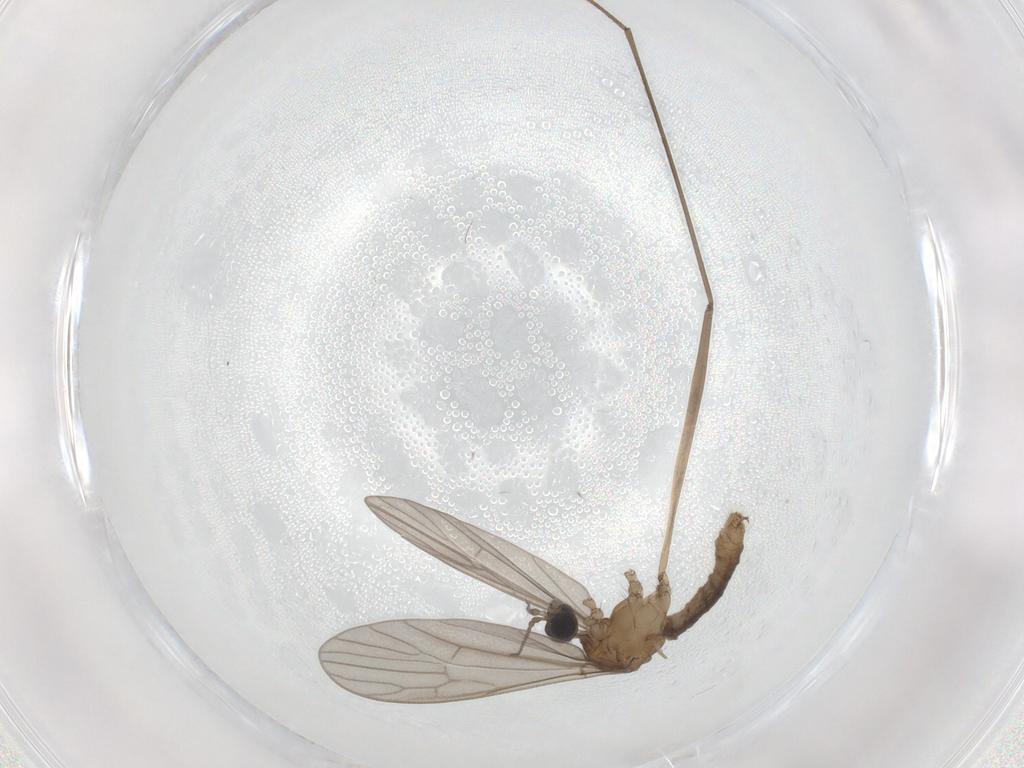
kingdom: Animalia
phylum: Arthropoda
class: Insecta
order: Diptera
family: Limoniidae
